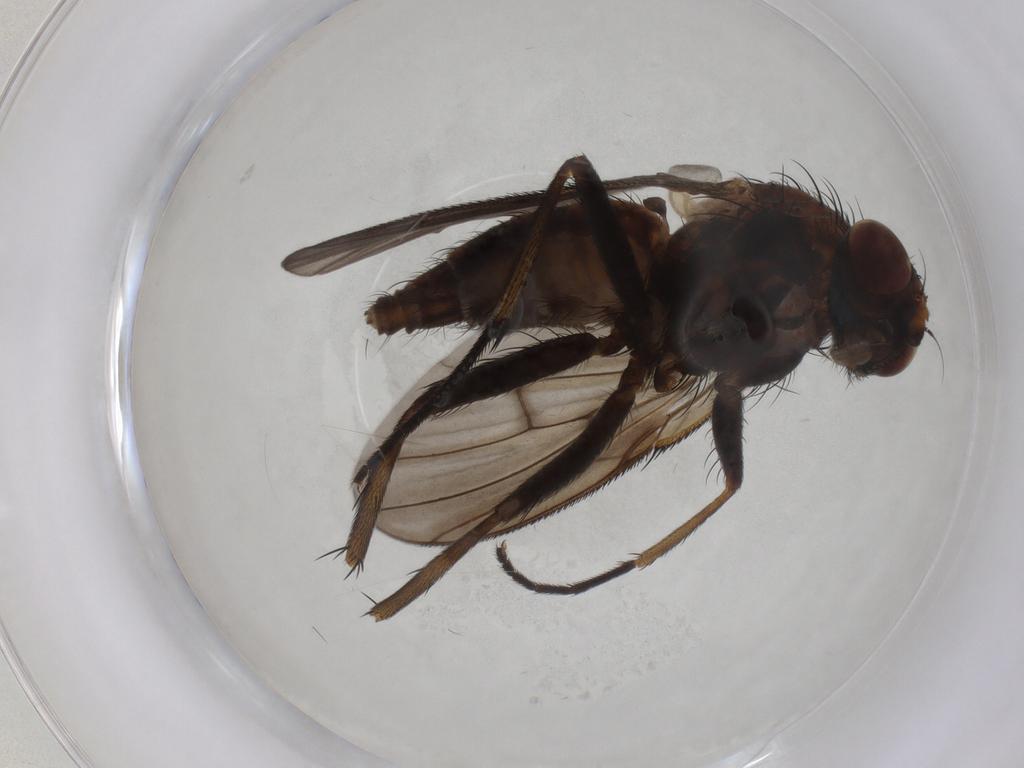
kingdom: Animalia
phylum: Arthropoda
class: Insecta
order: Diptera
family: Muscidae
